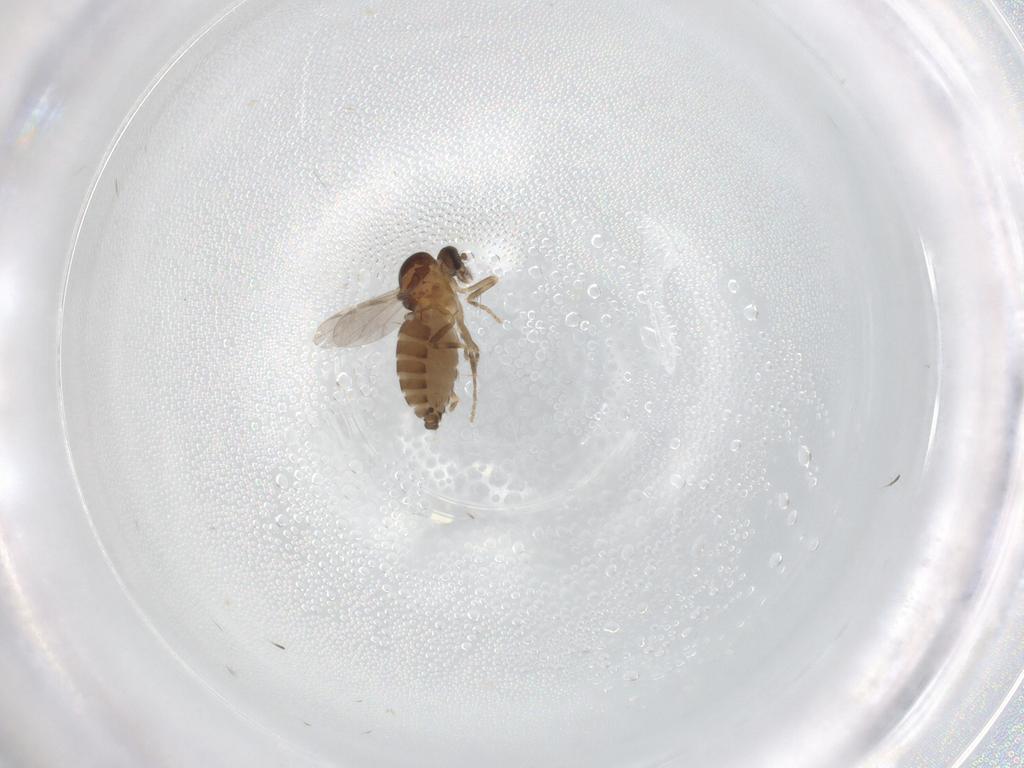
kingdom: Animalia
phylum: Arthropoda
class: Insecta
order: Diptera
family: Ceratopogonidae
